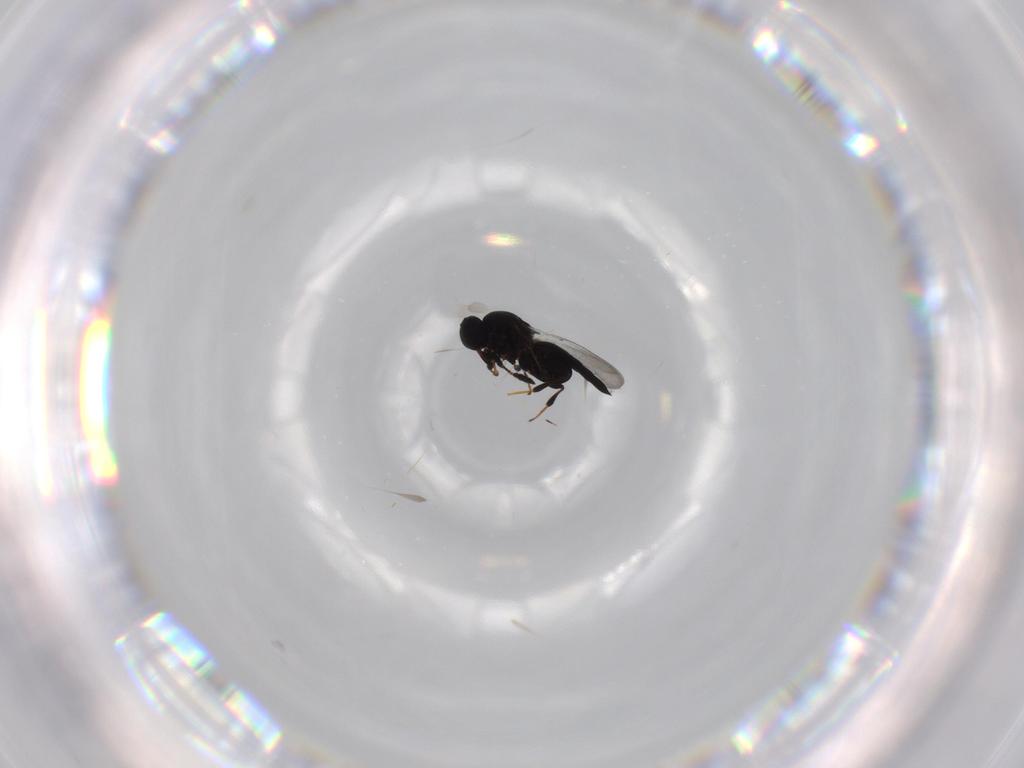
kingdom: Animalia
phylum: Arthropoda
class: Insecta
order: Hymenoptera
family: Platygastridae
